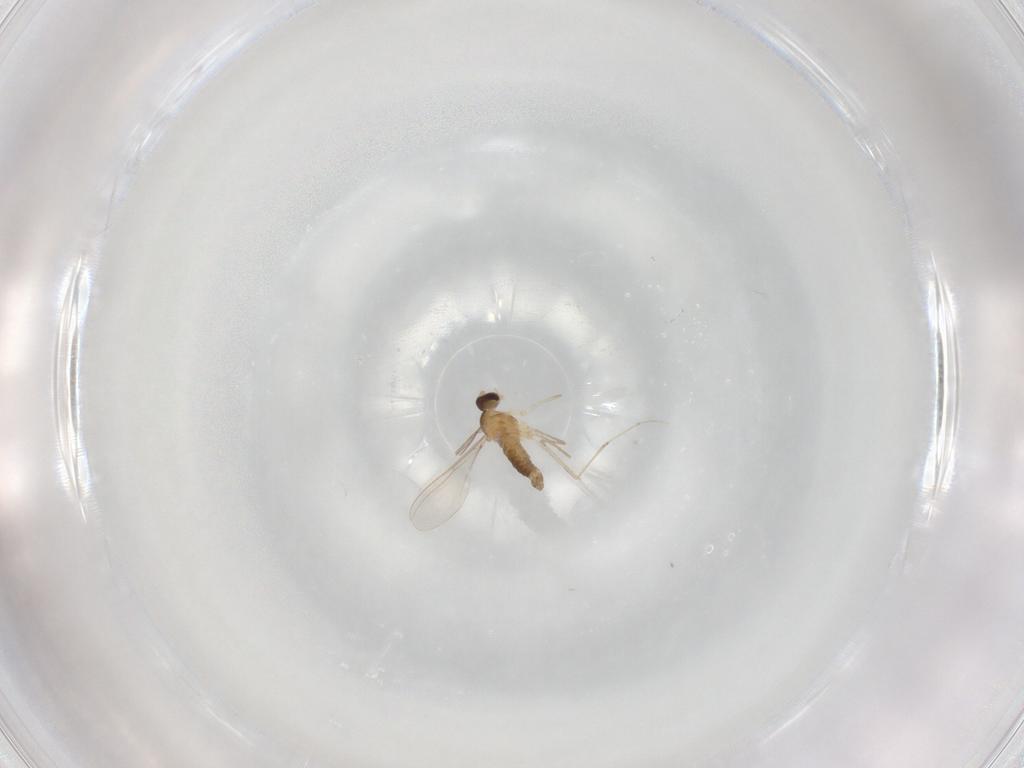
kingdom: Animalia
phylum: Arthropoda
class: Insecta
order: Diptera
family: Cecidomyiidae
